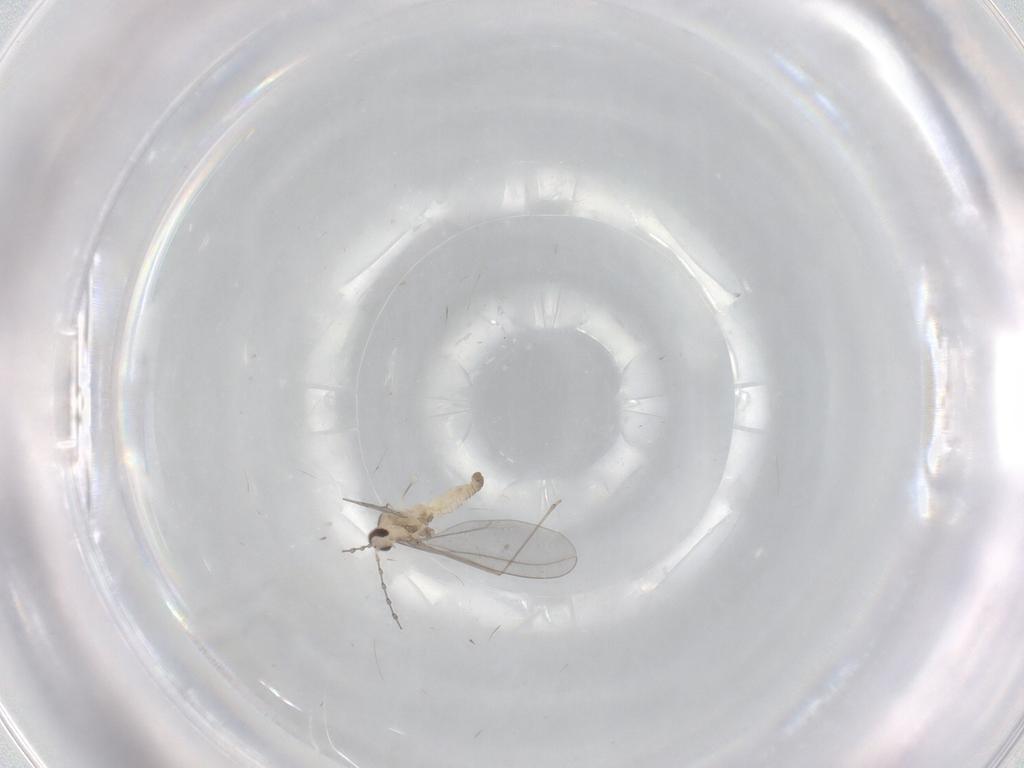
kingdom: Animalia
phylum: Arthropoda
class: Insecta
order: Diptera
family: Cecidomyiidae
